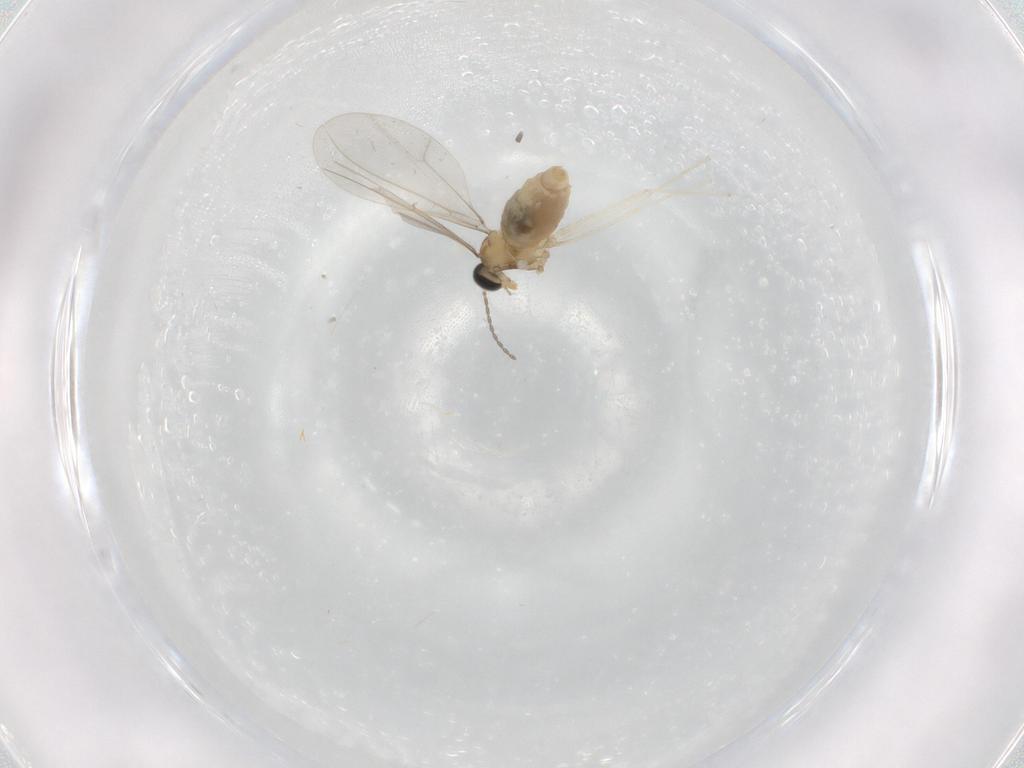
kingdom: Animalia
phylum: Arthropoda
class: Insecta
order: Diptera
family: Cecidomyiidae
